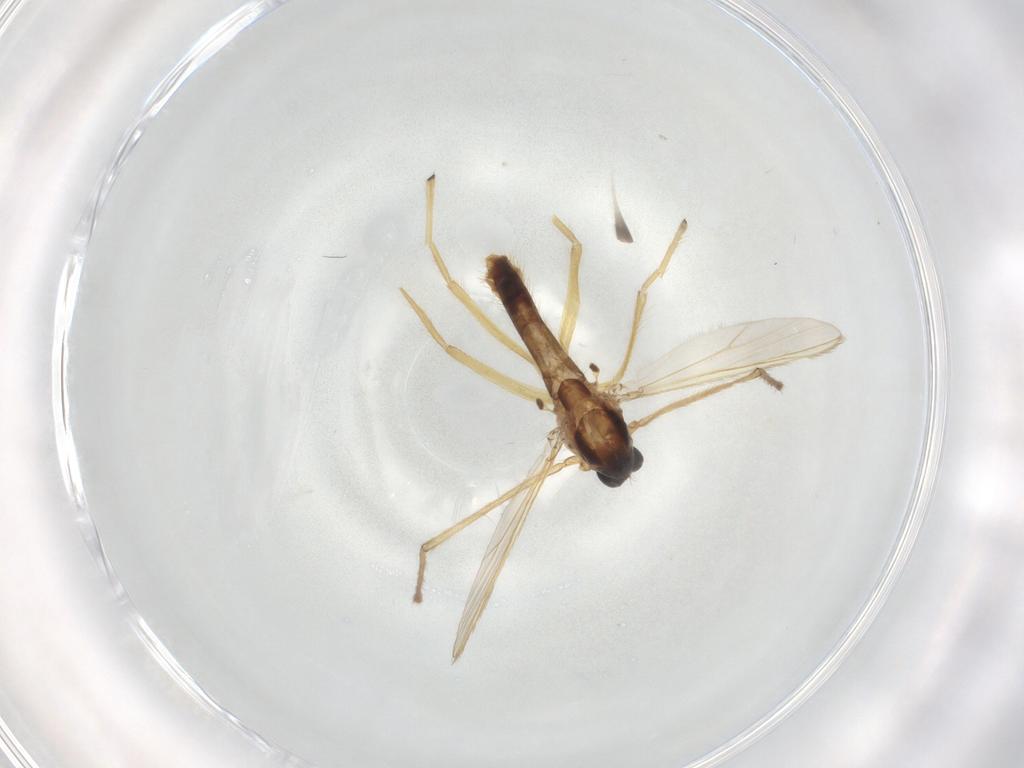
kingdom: Animalia
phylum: Arthropoda
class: Insecta
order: Diptera
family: Chironomidae
